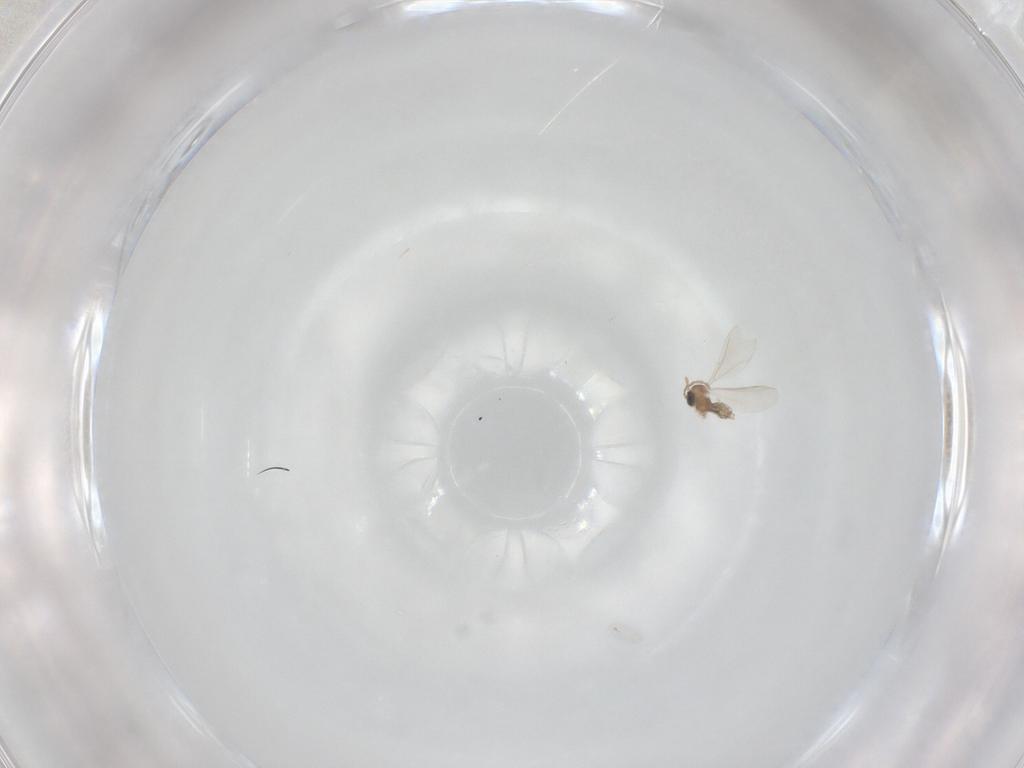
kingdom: Animalia
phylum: Arthropoda
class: Insecta
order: Diptera
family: Cecidomyiidae
